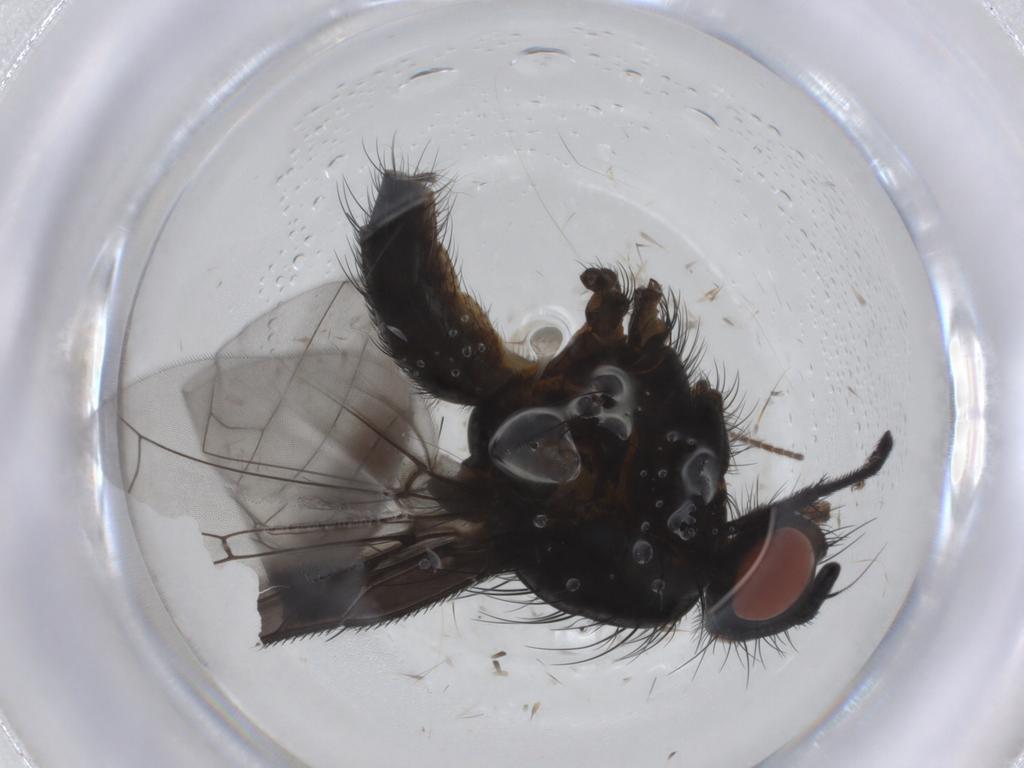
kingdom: Animalia
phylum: Arthropoda
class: Insecta
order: Diptera
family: Anthomyiidae
